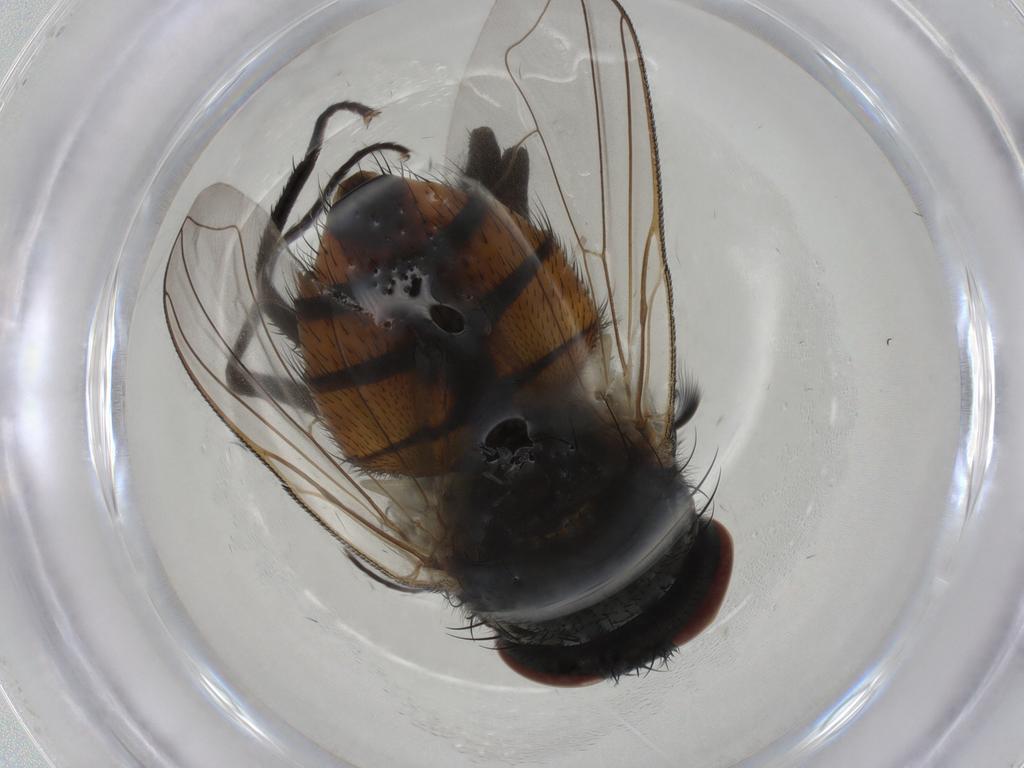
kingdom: Animalia
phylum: Arthropoda
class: Insecta
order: Diptera
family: Muscidae
